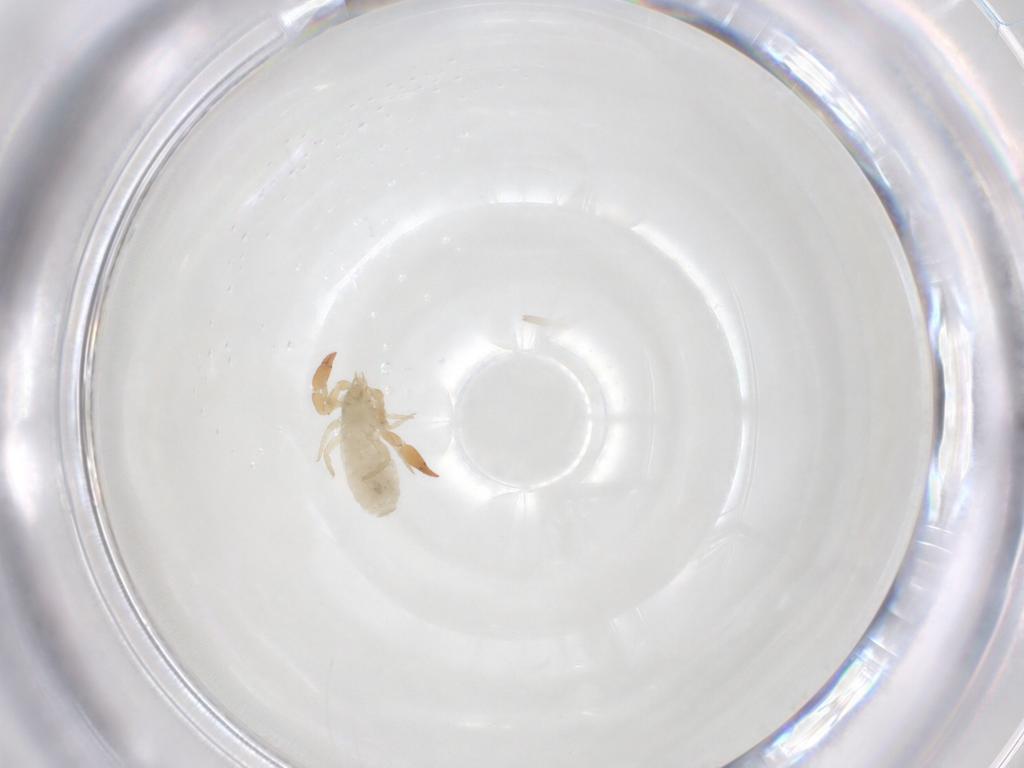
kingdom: Animalia
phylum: Arthropoda
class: Arachnida
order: Pseudoscorpiones
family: Withiidae
